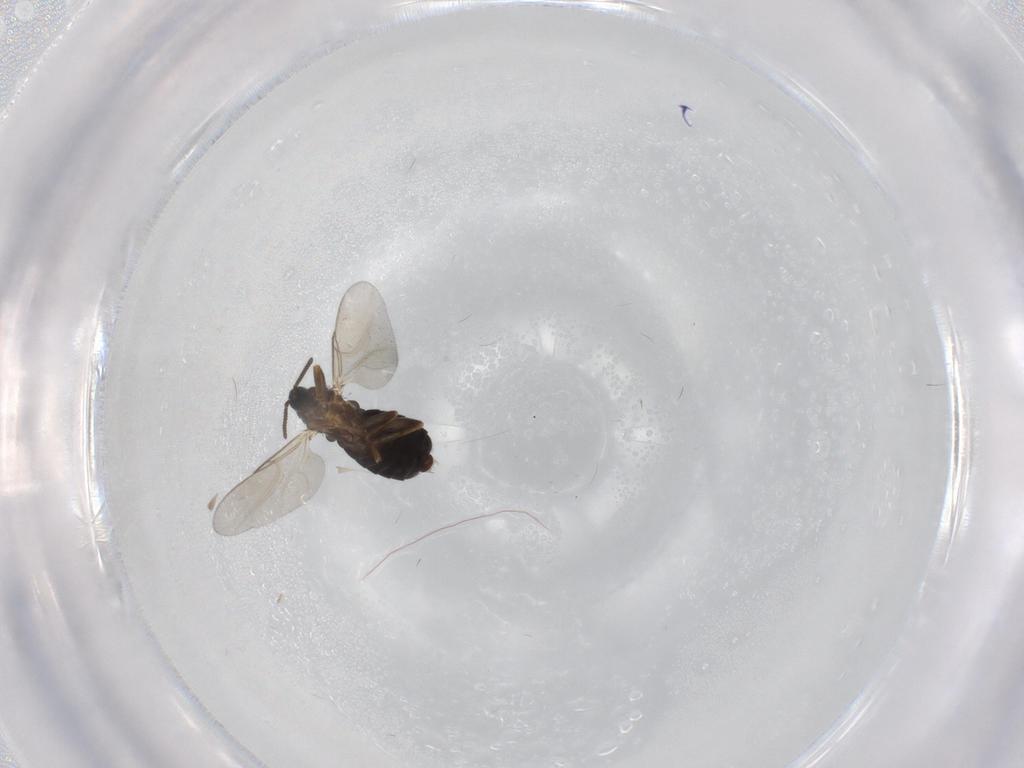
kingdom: Animalia
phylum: Arthropoda
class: Insecta
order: Diptera
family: Scatopsidae
